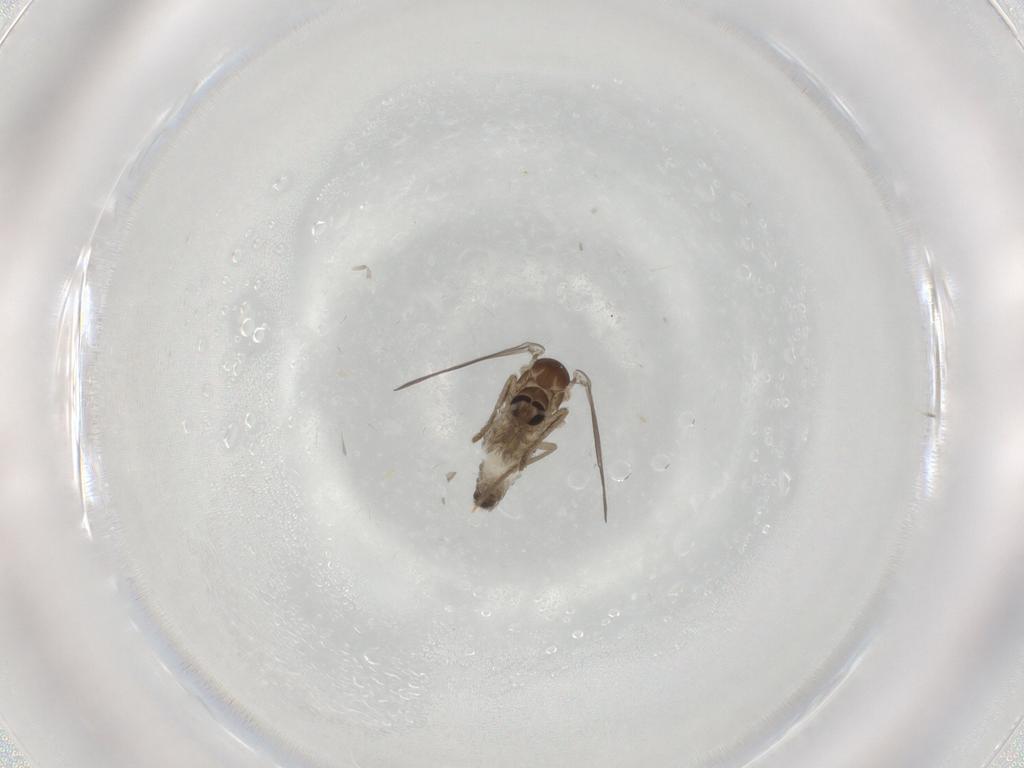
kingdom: Animalia
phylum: Arthropoda
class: Insecta
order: Diptera
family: Psychodidae
